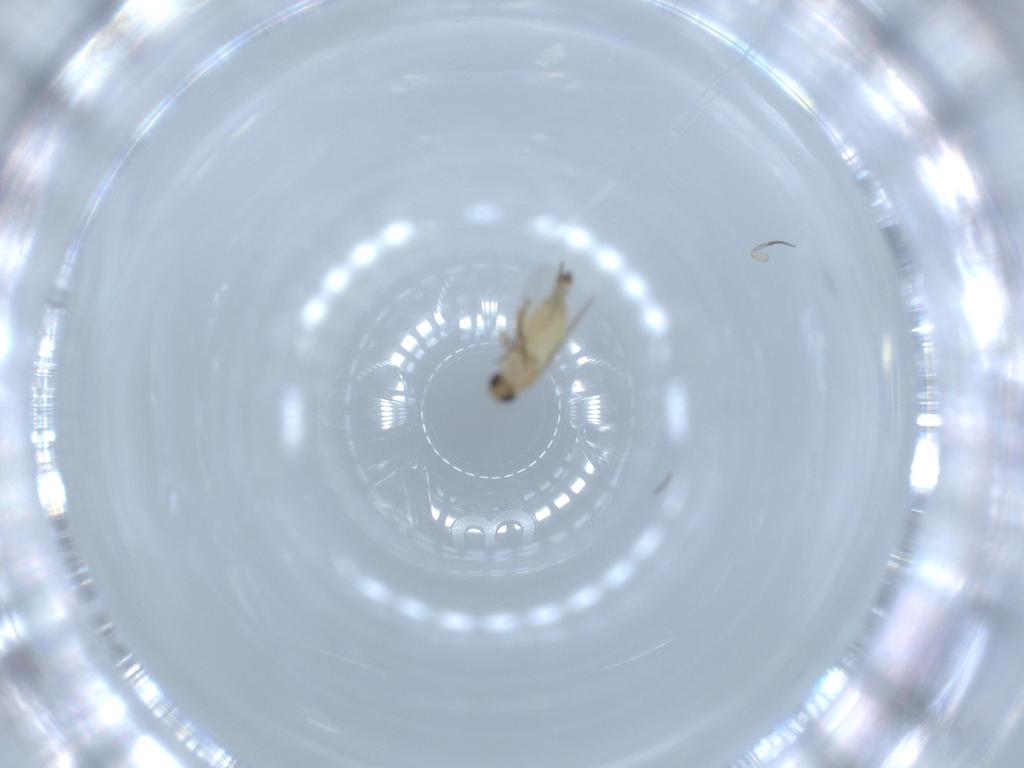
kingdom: Animalia
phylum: Arthropoda
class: Insecta
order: Diptera
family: Phoridae
